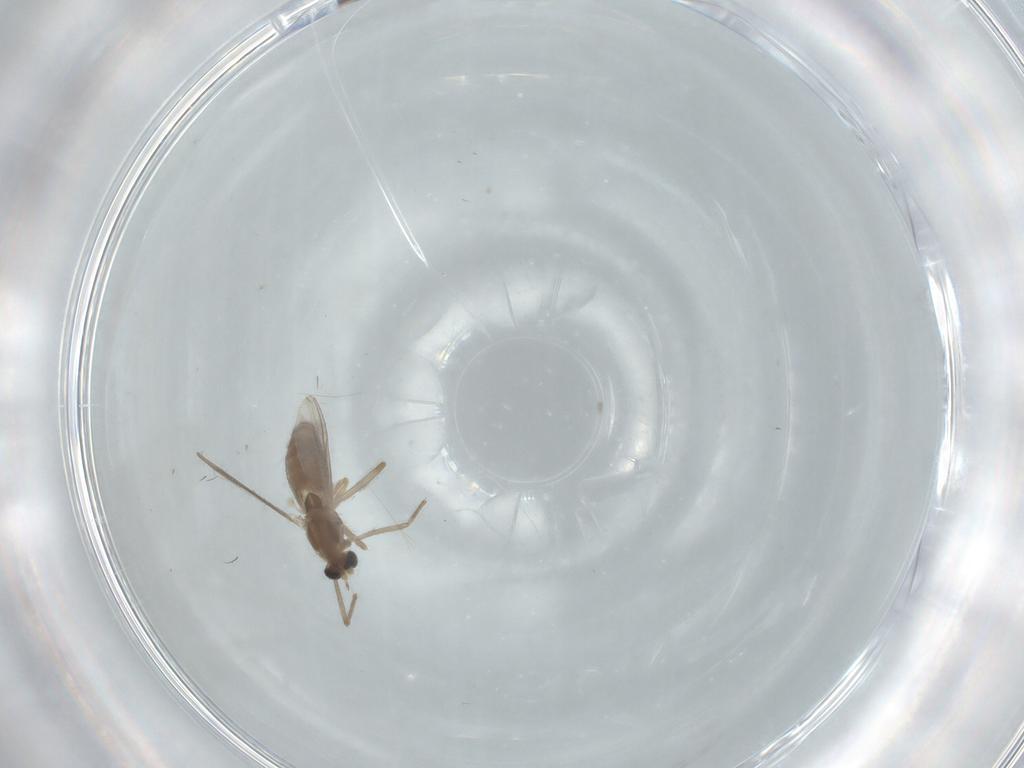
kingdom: Animalia
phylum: Arthropoda
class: Insecta
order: Diptera
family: Chironomidae
